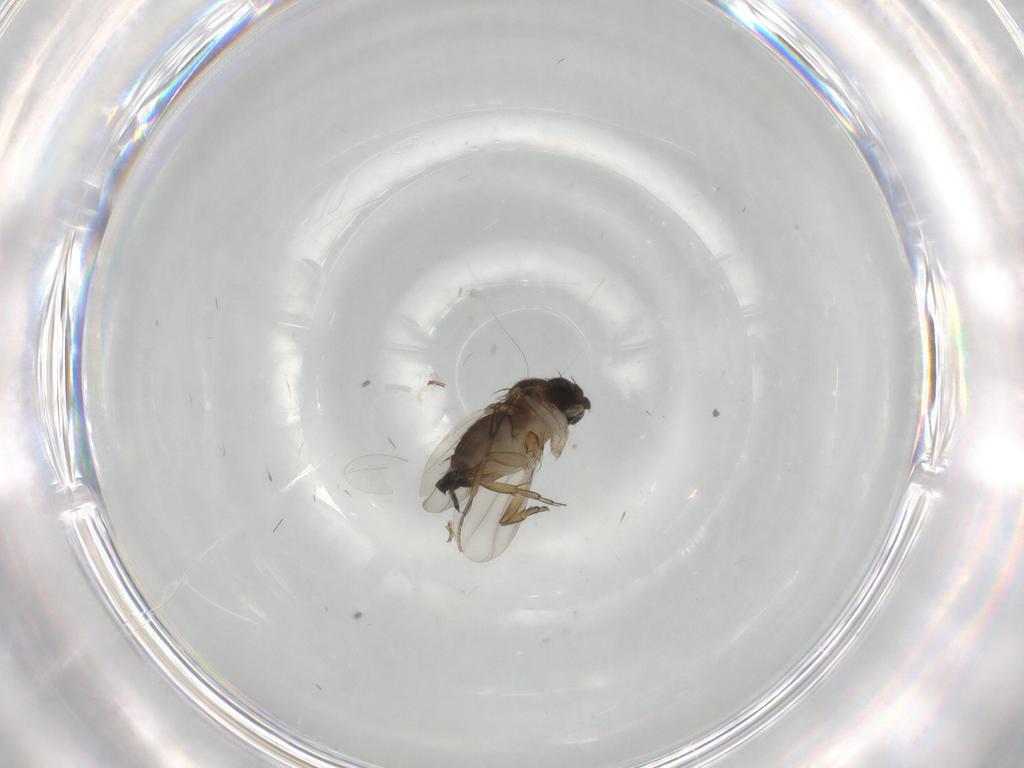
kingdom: Animalia
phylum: Arthropoda
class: Insecta
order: Diptera
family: Phoridae
